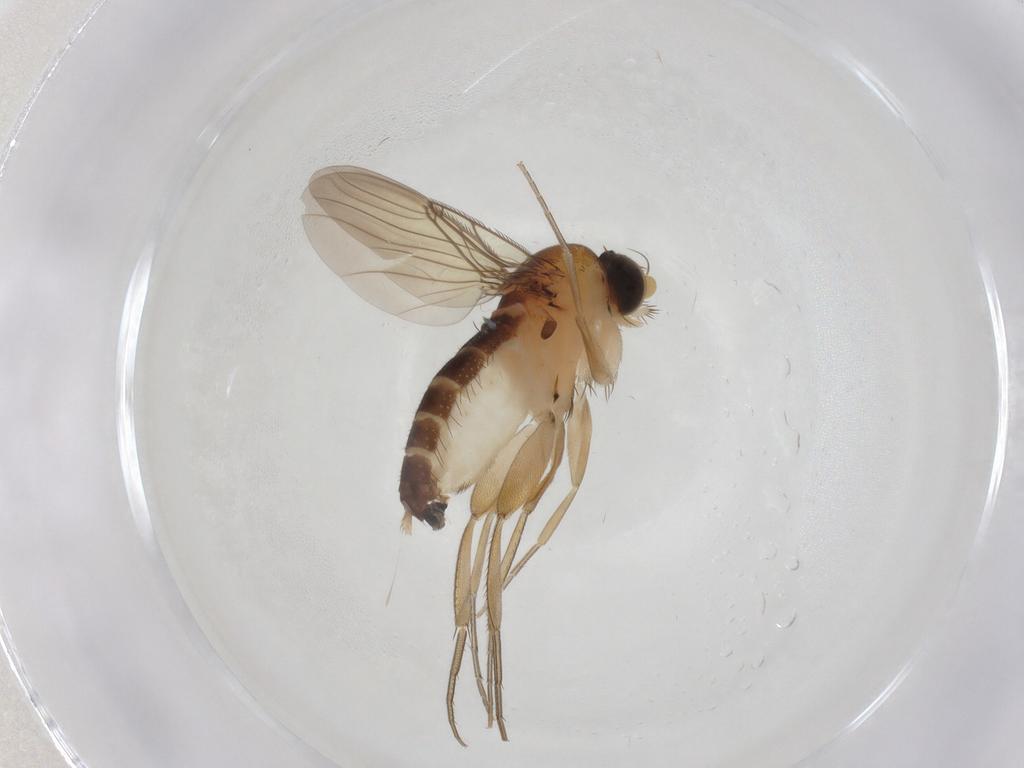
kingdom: Animalia
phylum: Arthropoda
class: Insecta
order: Diptera
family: Phoridae
